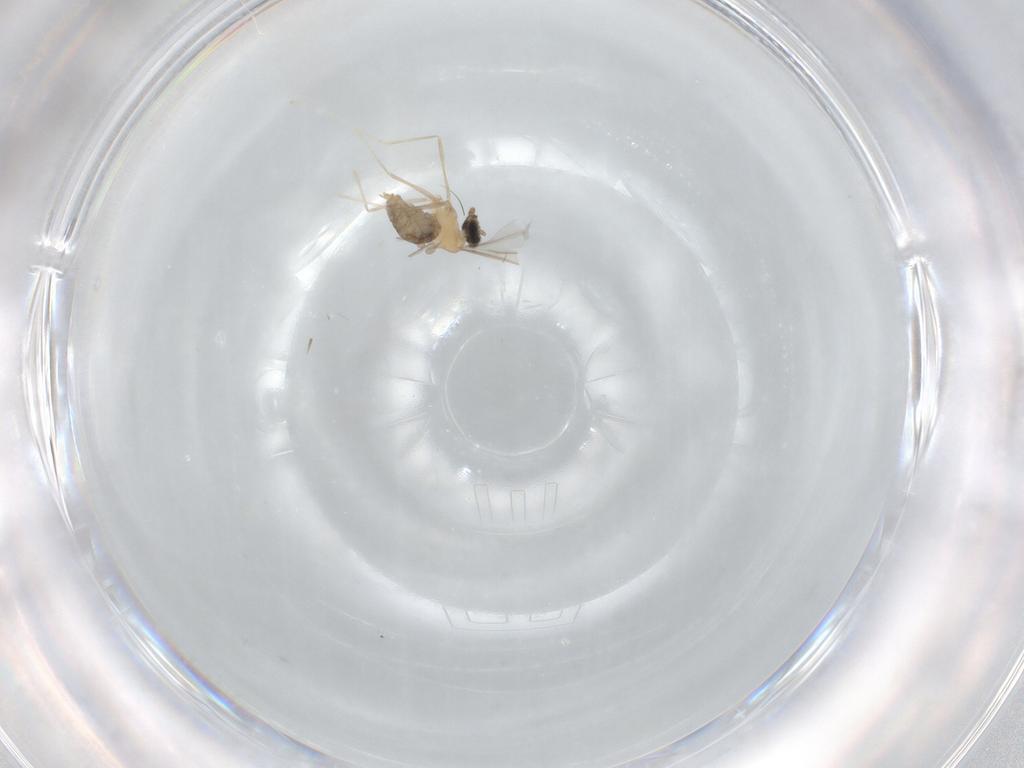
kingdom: Animalia
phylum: Arthropoda
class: Insecta
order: Diptera
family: Cecidomyiidae
